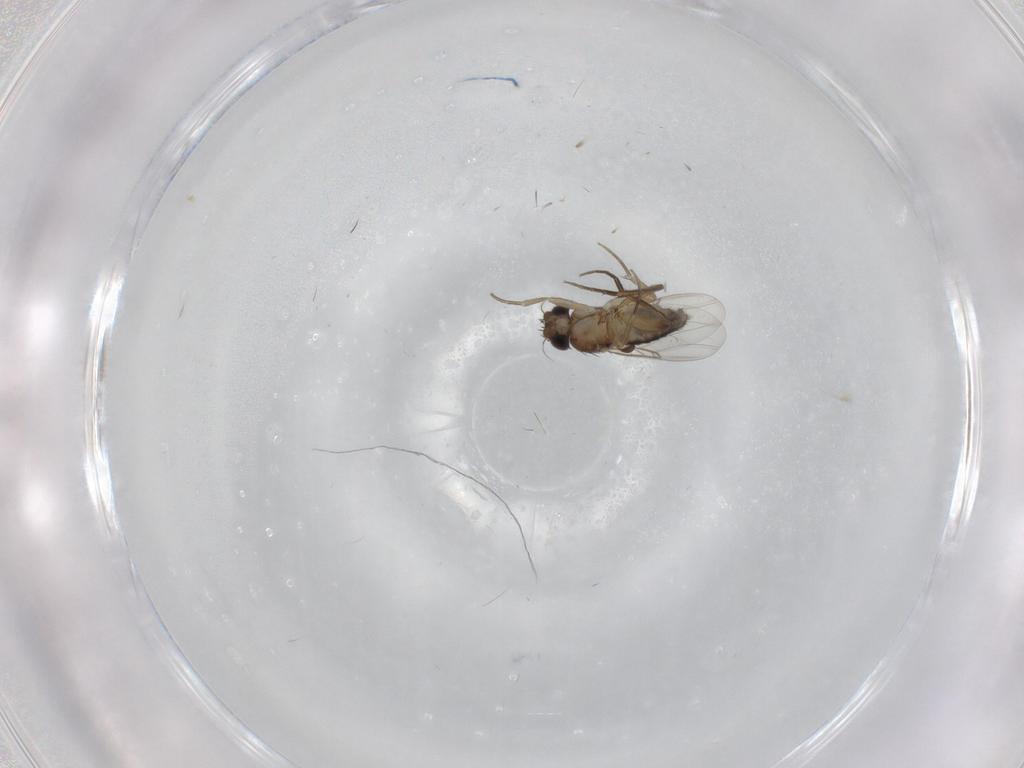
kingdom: Animalia
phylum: Arthropoda
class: Insecta
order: Diptera
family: Phoridae
